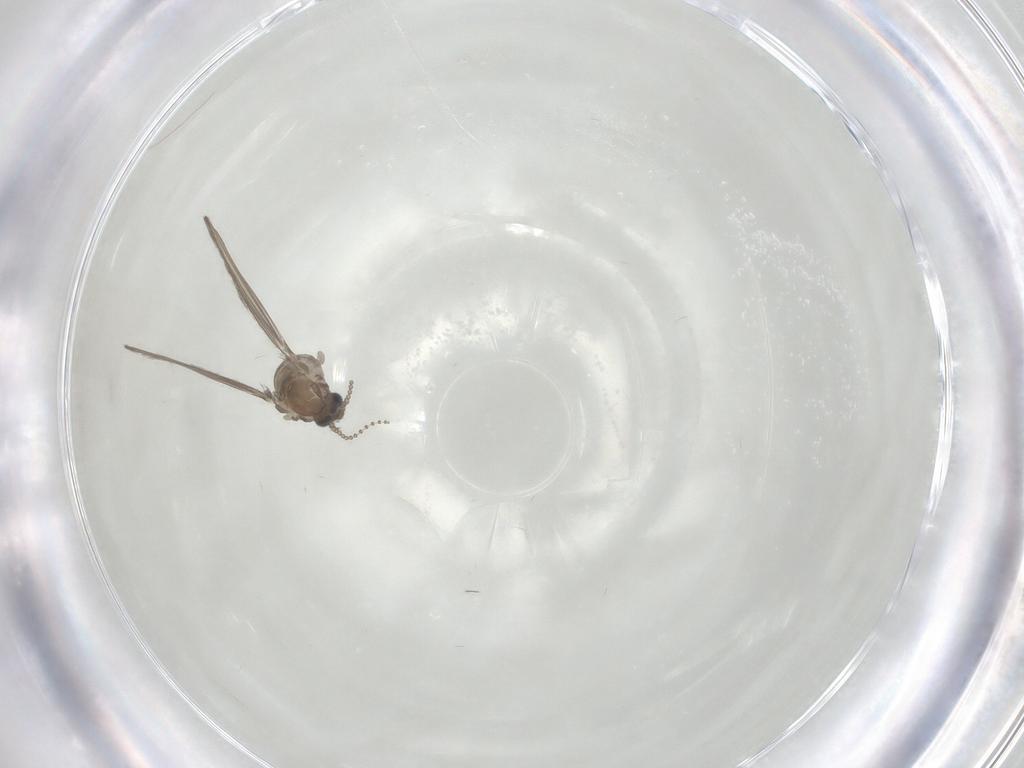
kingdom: Animalia
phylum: Arthropoda
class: Insecta
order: Diptera
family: Psychodidae
